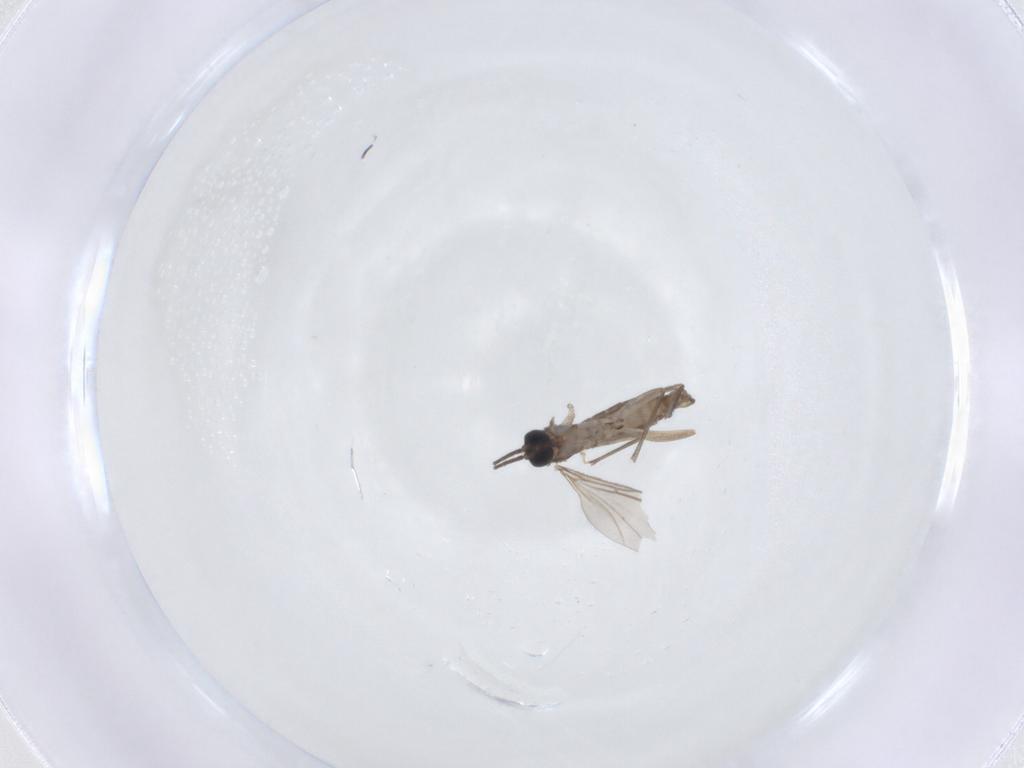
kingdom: Animalia
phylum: Arthropoda
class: Insecta
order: Diptera
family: Sciaridae
